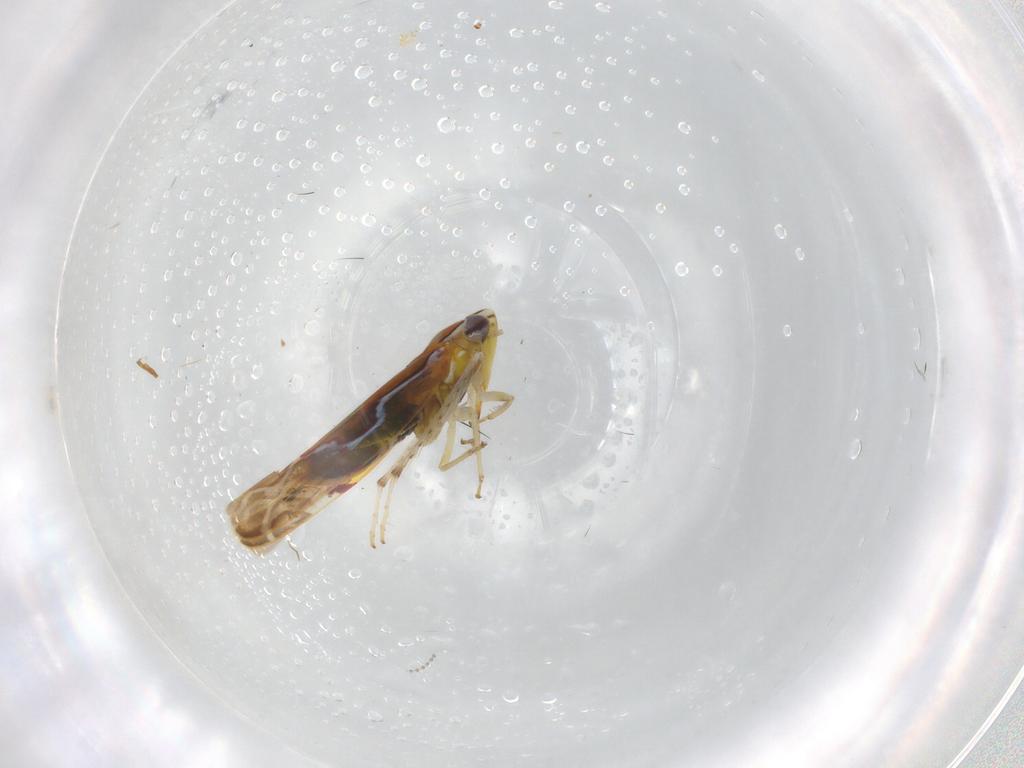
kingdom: Animalia
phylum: Arthropoda
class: Insecta
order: Hemiptera
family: Cicadellidae
